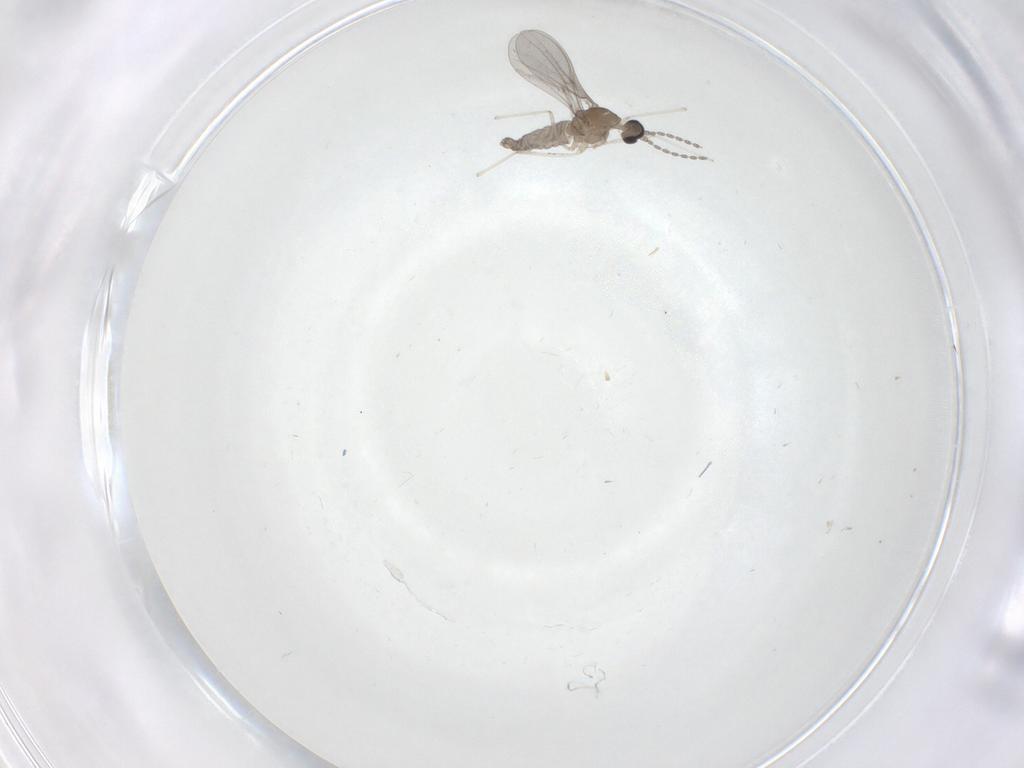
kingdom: Animalia
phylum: Arthropoda
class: Insecta
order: Diptera
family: Cecidomyiidae
